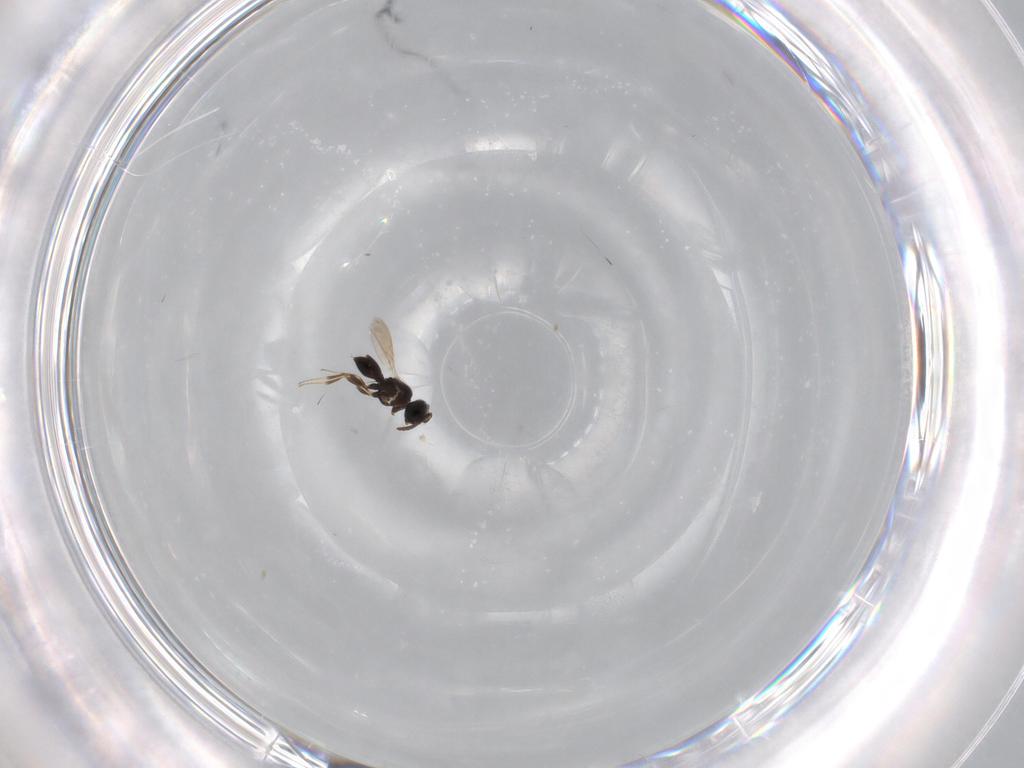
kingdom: Animalia
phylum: Arthropoda
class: Insecta
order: Hymenoptera
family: Scelionidae
